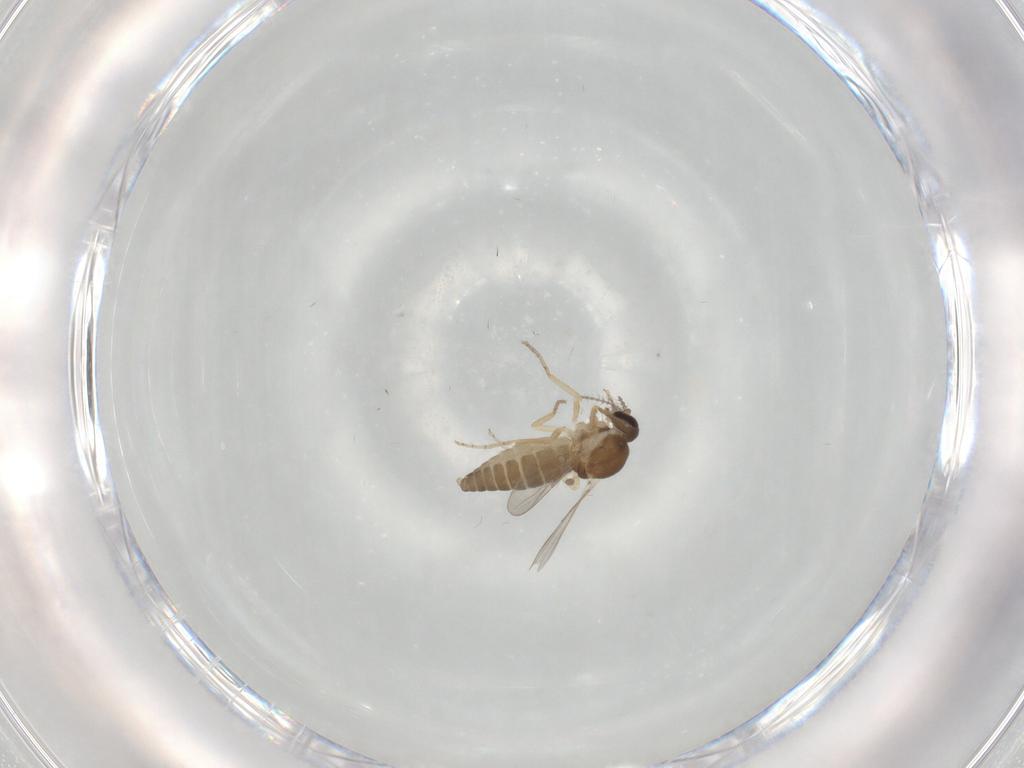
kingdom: Animalia
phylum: Arthropoda
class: Insecta
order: Diptera
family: Ceratopogonidae
